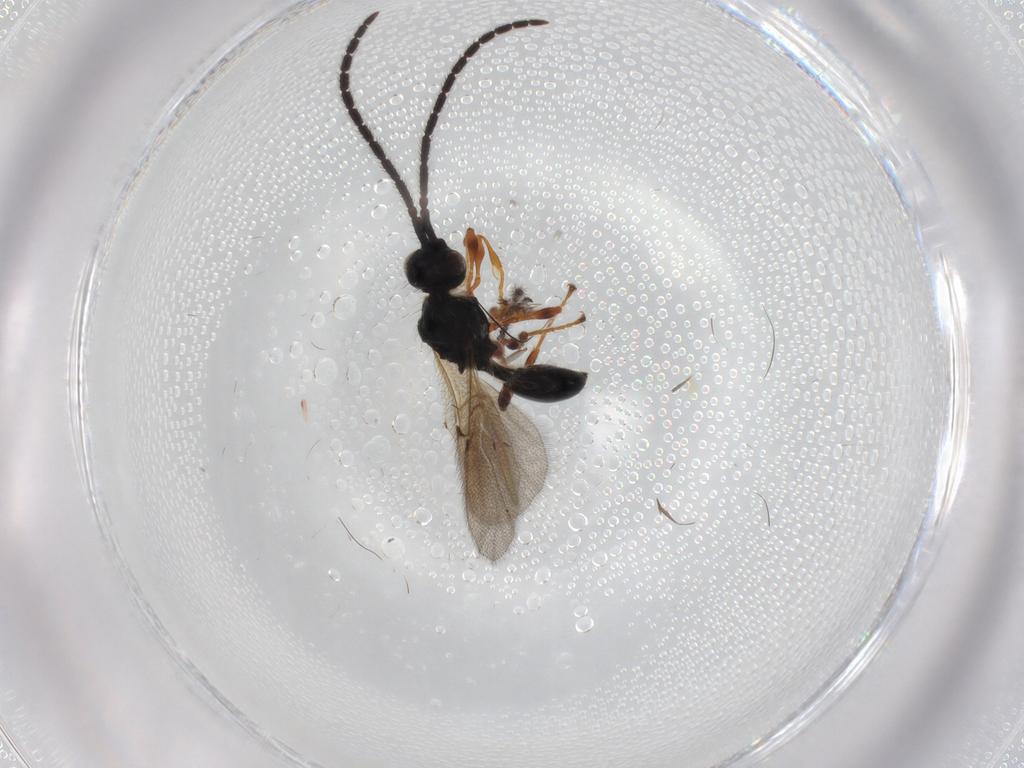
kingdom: Animalia
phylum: Arthropoda
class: Insecta
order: Hymenoptera
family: Diapriidae
